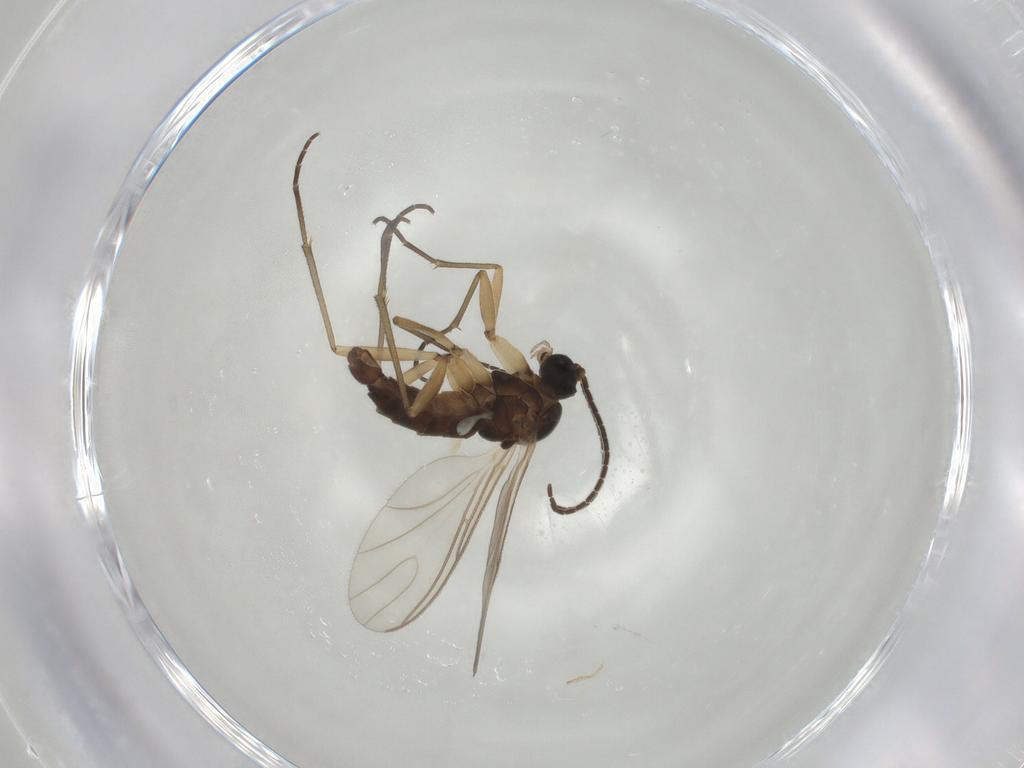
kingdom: Animalia
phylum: Arthropoda
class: Insecta
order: Diptera
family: Sciaridae
